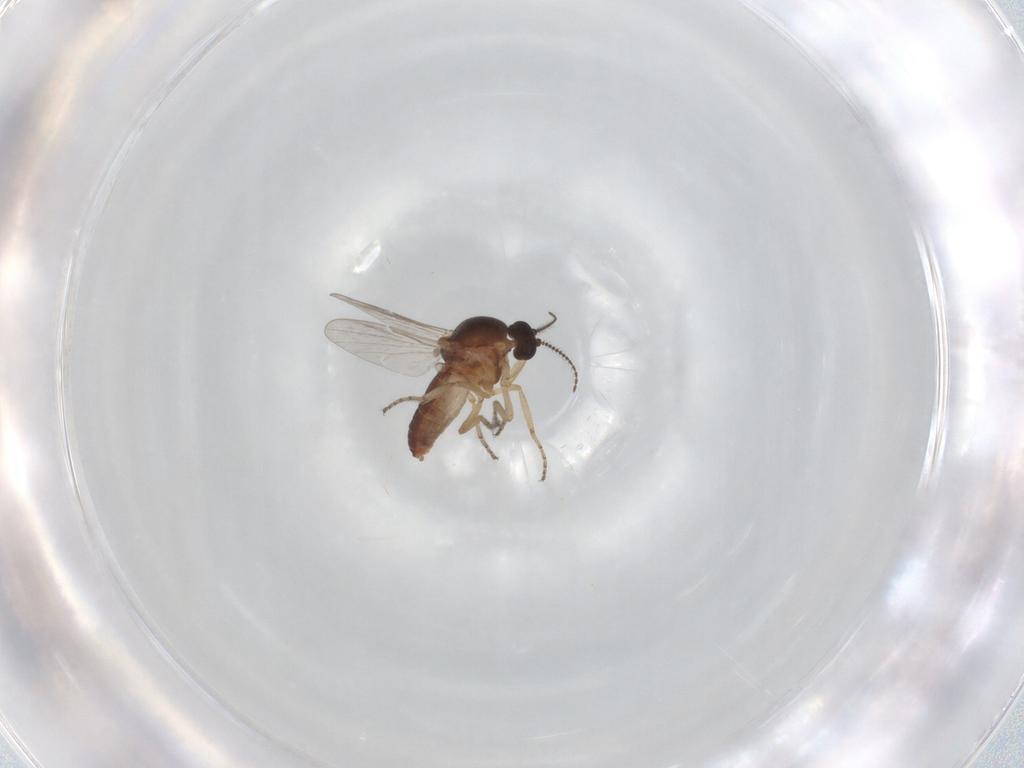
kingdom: Animalia
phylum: Arthropoda
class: Insecta
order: Diptera
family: Ceratopogonidae
